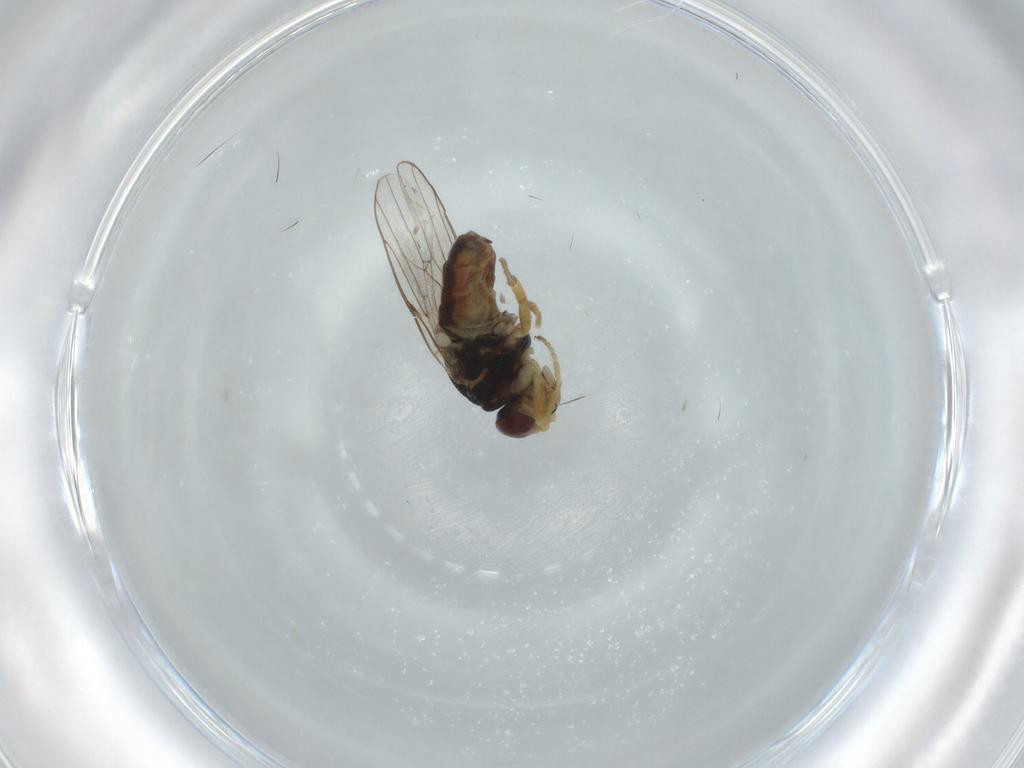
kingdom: Animalia
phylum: Arthropoda
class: Insecta
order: Diptera
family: Chloropidae
